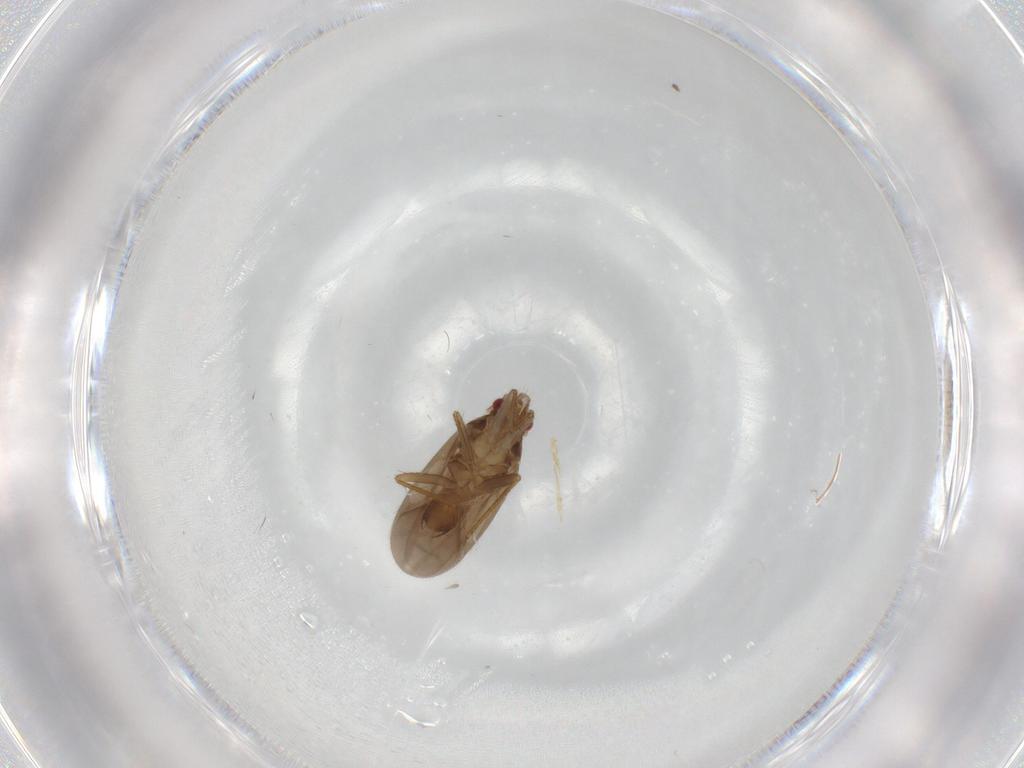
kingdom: Animalia
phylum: Arthropoda
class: Insecta
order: Hemiptera
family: Ceratocombidae
